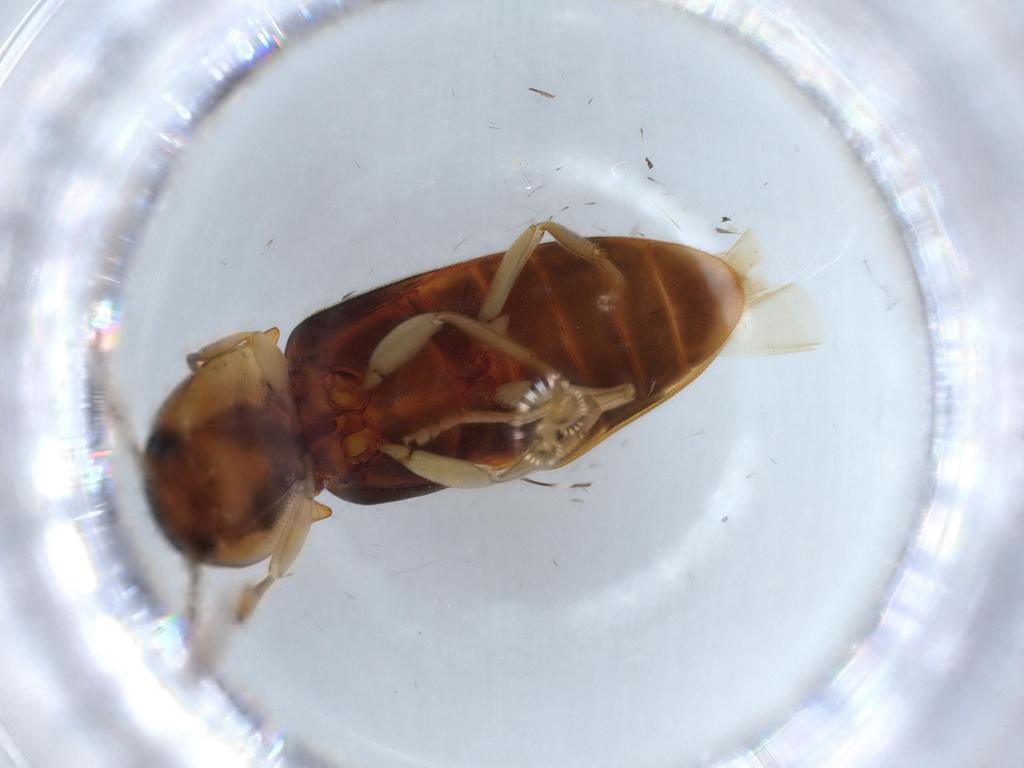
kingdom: Animalia
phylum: Arthropoda
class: Insecta
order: Coleoptera
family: Elateridae
